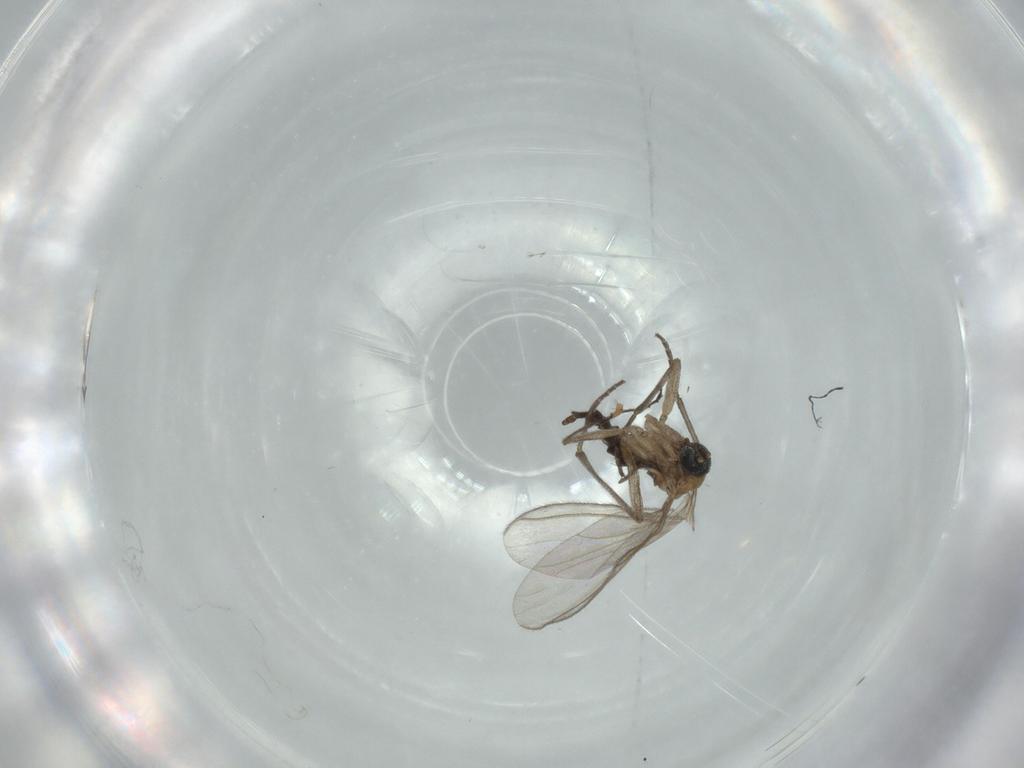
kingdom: Animalia
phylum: Arthropoda
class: Insecta
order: Diptera
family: Sciaridae
